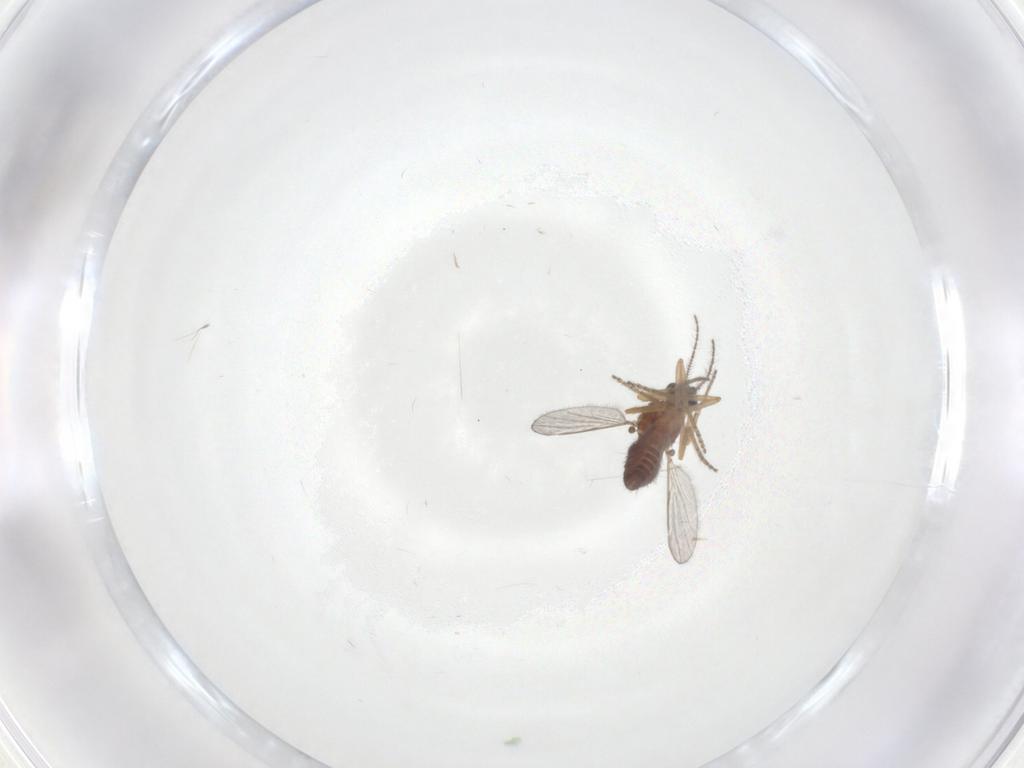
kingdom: Animalia
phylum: Arthropoda
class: Insecta
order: Diptera
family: Ceratopogonidae
